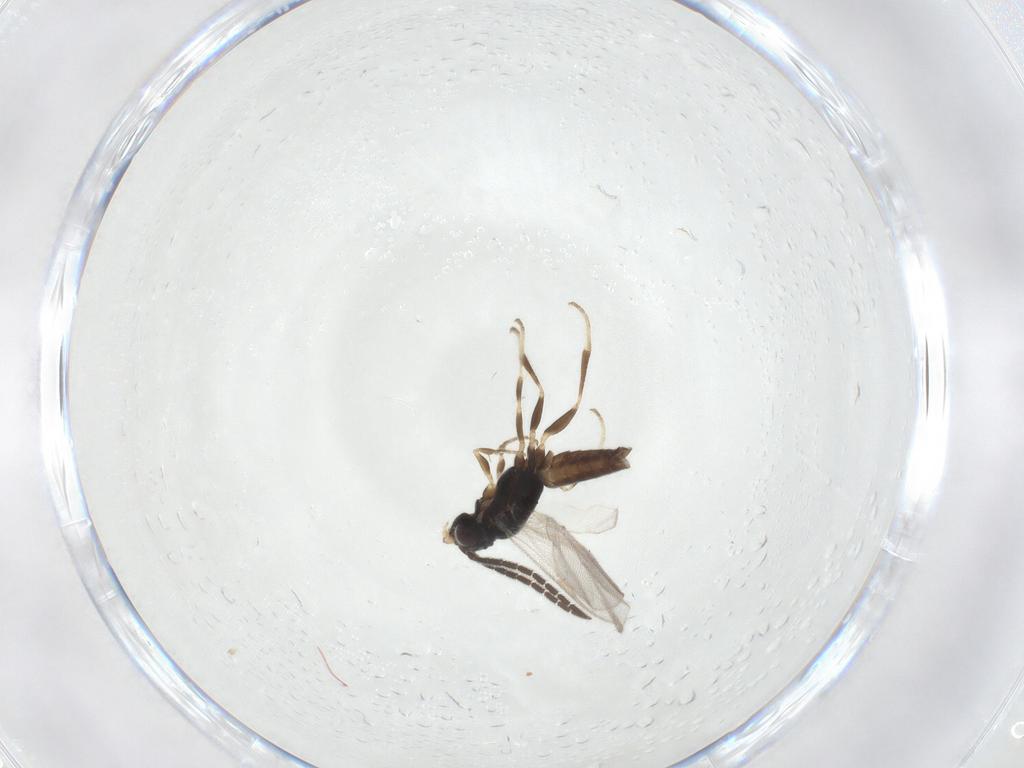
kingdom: Animalia
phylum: Arthropoda
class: Insecta
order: Hymenoptera
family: Dryinidae
